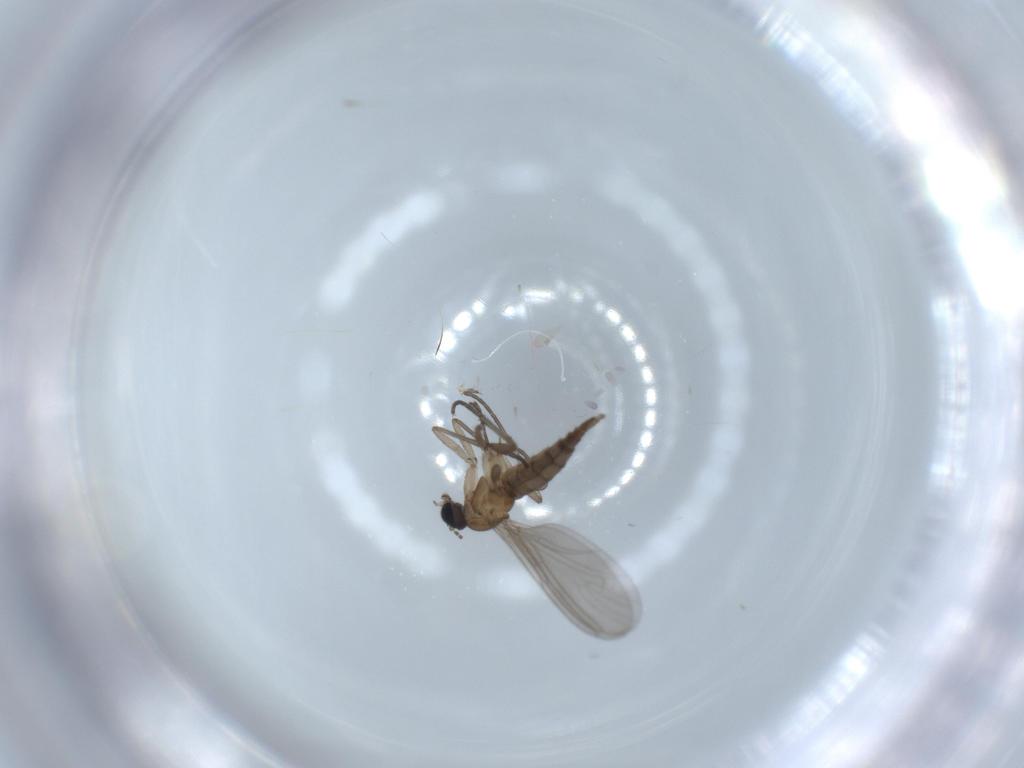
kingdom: Animalia
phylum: Arthropoda
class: Insecta
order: Diptera
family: Sciaridae
